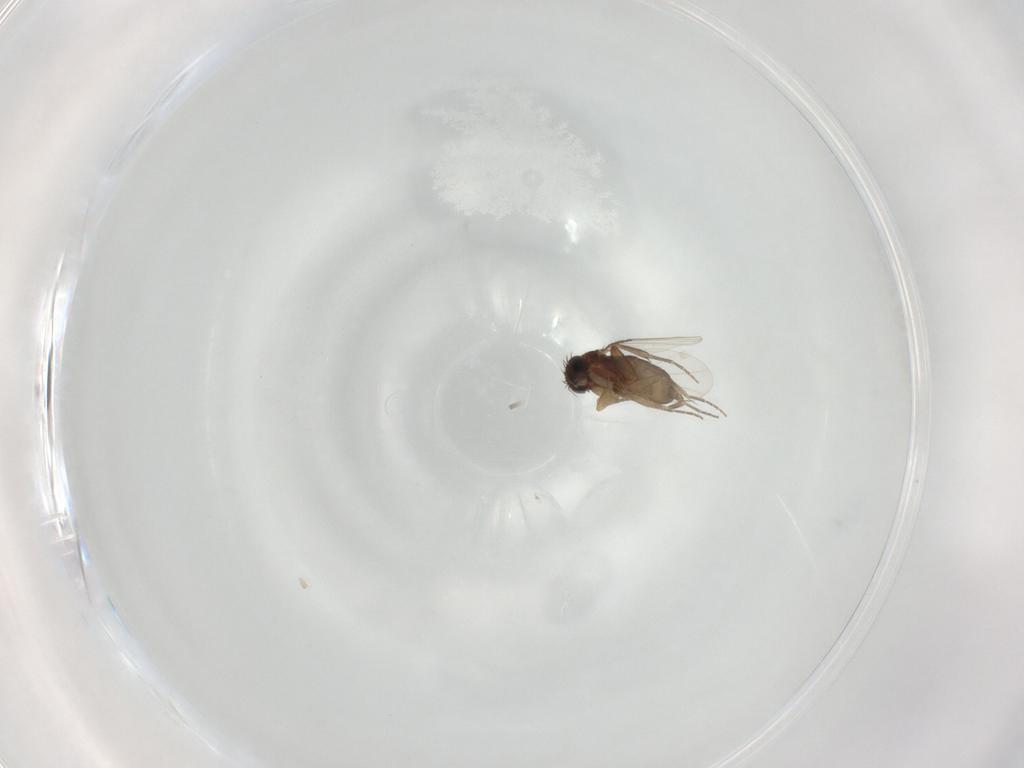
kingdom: Animalia
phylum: Arthropoda
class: Insecta
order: Diptera
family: Phoridae
